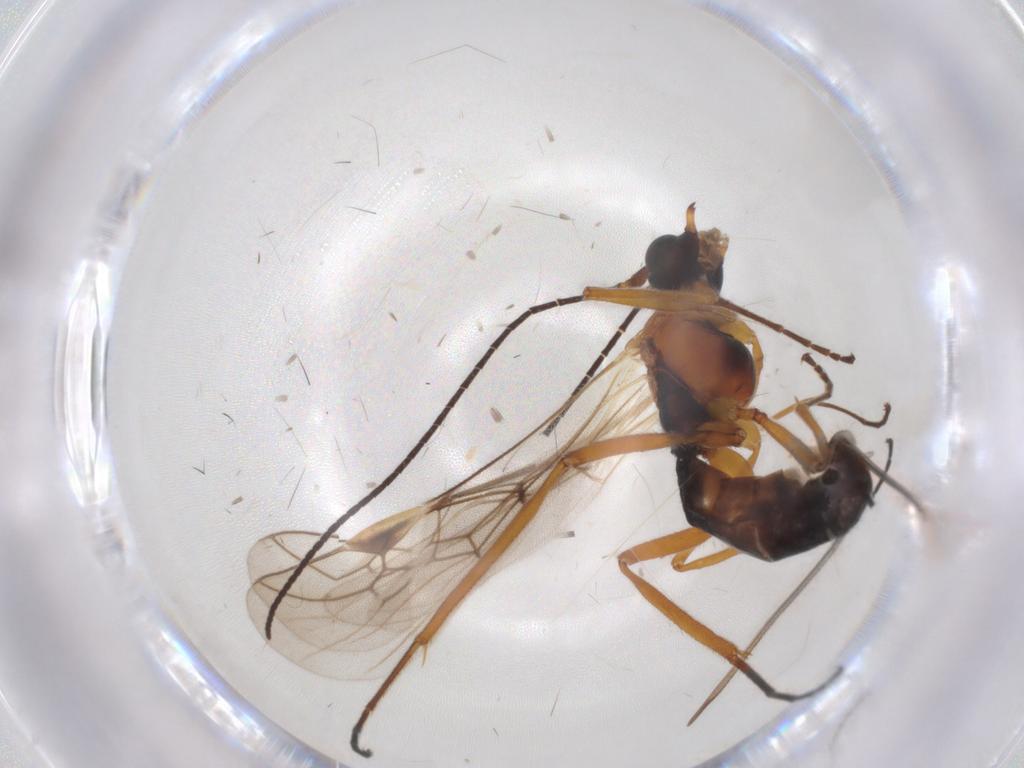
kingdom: Animalia
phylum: Arthropoda
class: Insecta
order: Hymenoptera
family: Braconidae
